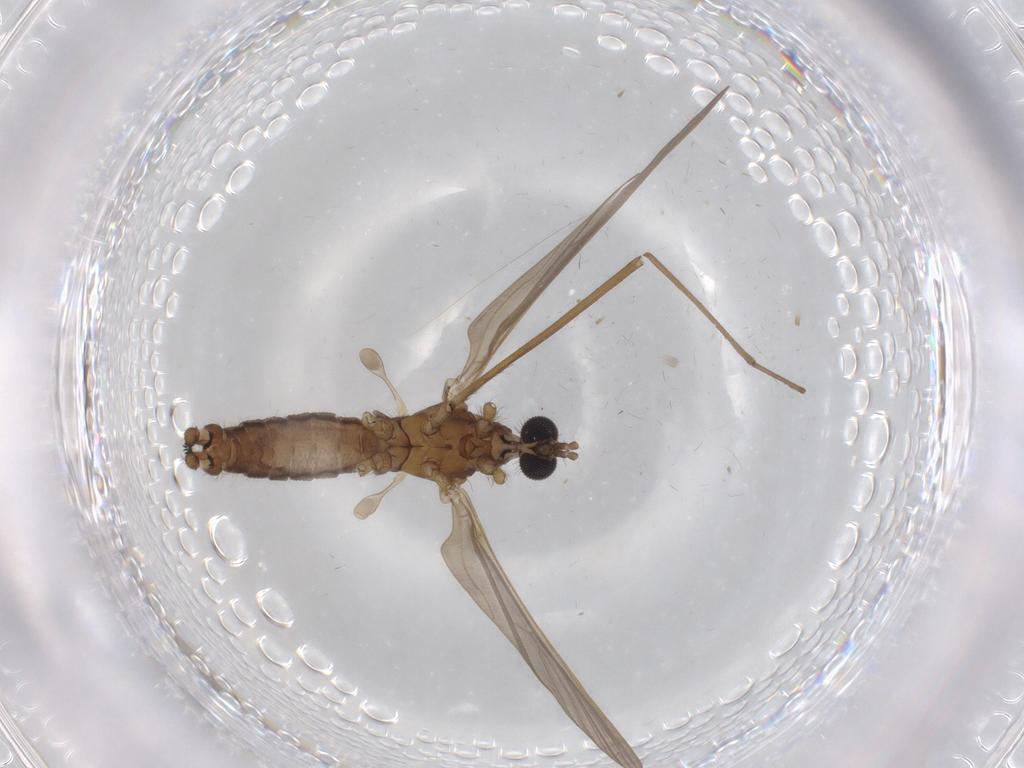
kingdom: Animalia
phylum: Arthropoda
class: Insecta
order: Diptera
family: Limoniidae
